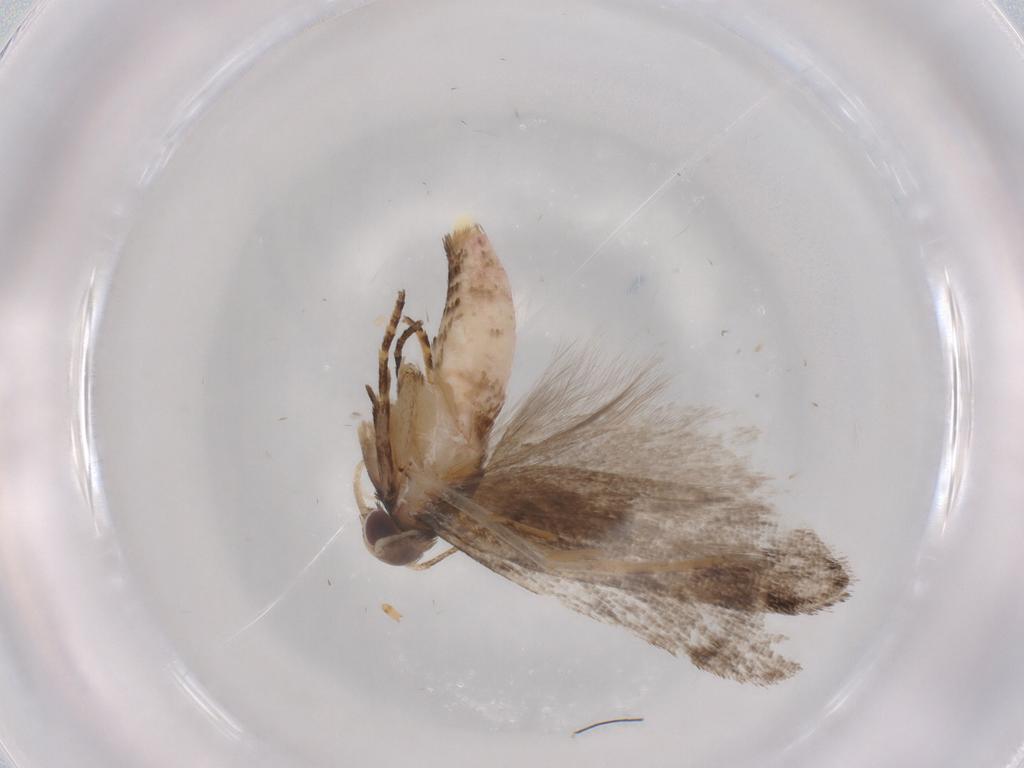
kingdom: Animalia
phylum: Arthropoda
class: Insecta
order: Lepidoptera
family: Gelechiidae
